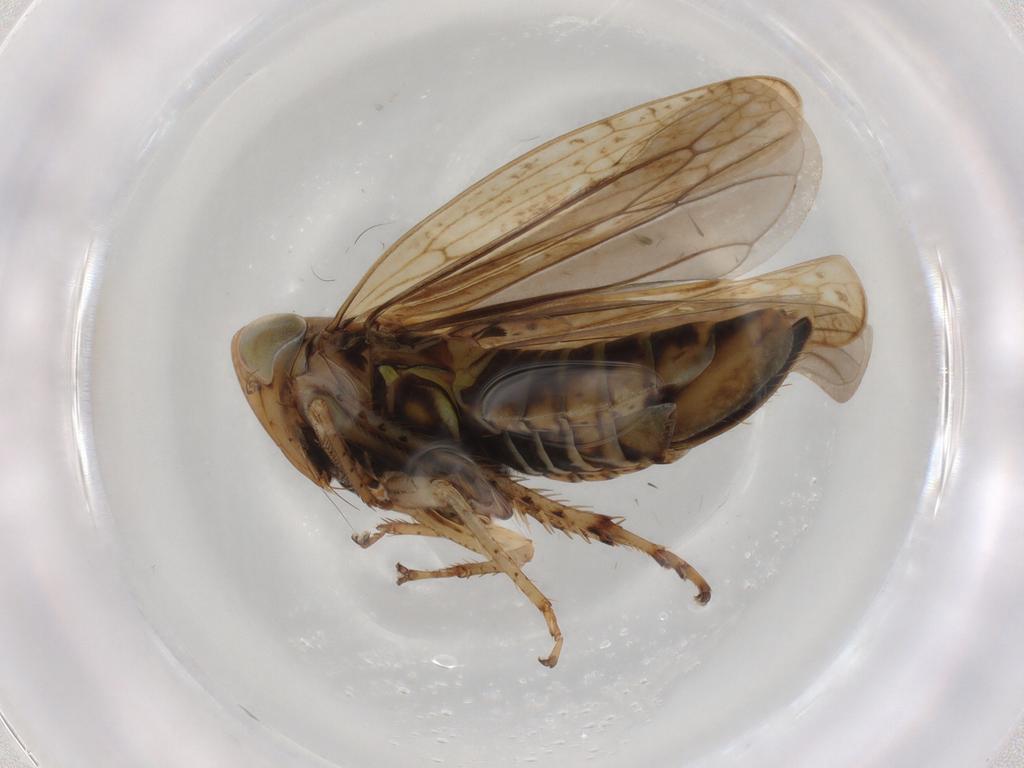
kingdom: Animalia
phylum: Arthropoda
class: Insecta
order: Hemiptera
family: Cicadellidae
